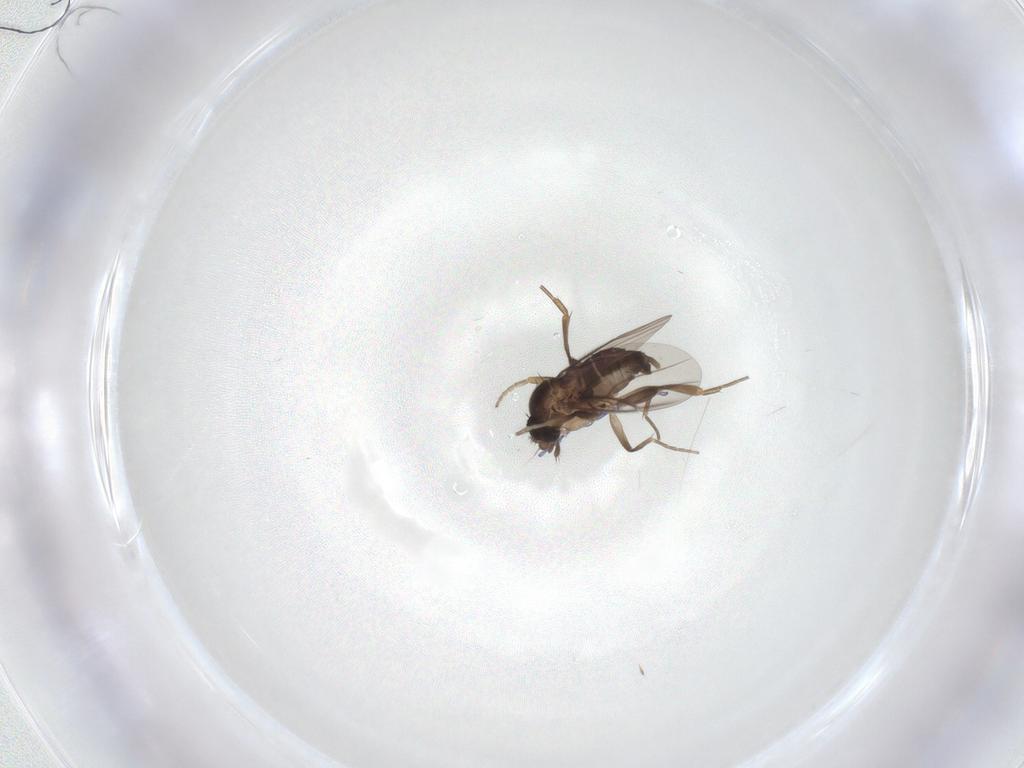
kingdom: Animalia
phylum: Arthropoda
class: Insecta
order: Diptera
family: Phoridae
